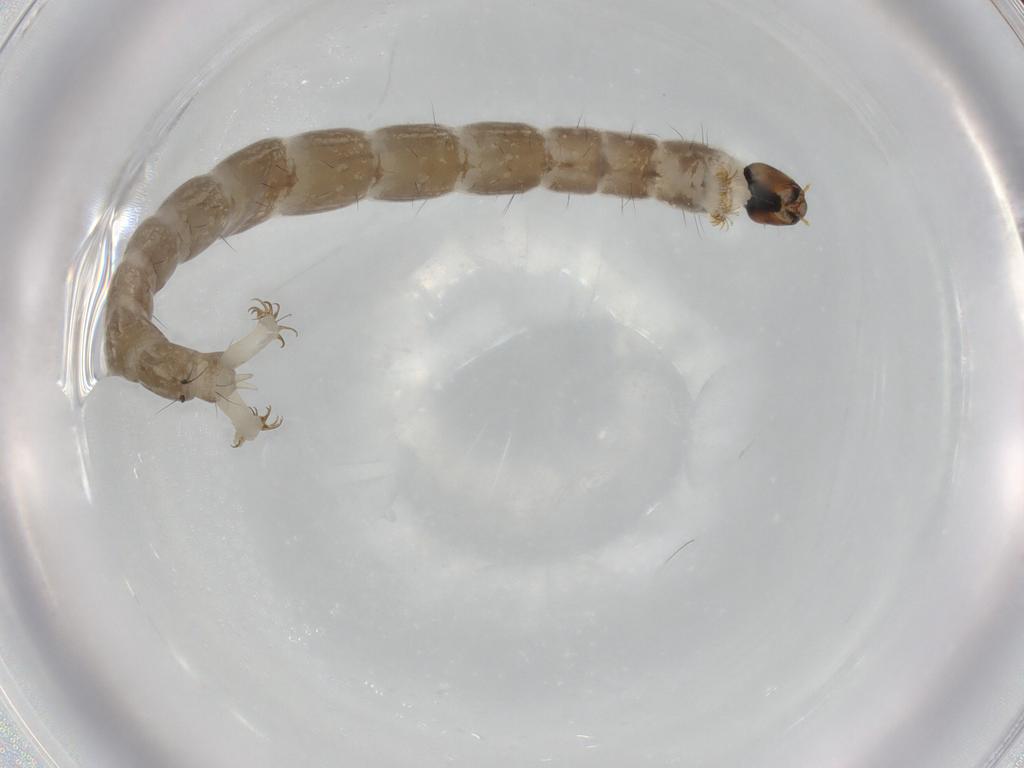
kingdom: Animalia
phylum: Arthropoda
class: Insecta
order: Diptera
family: Chironomidae
